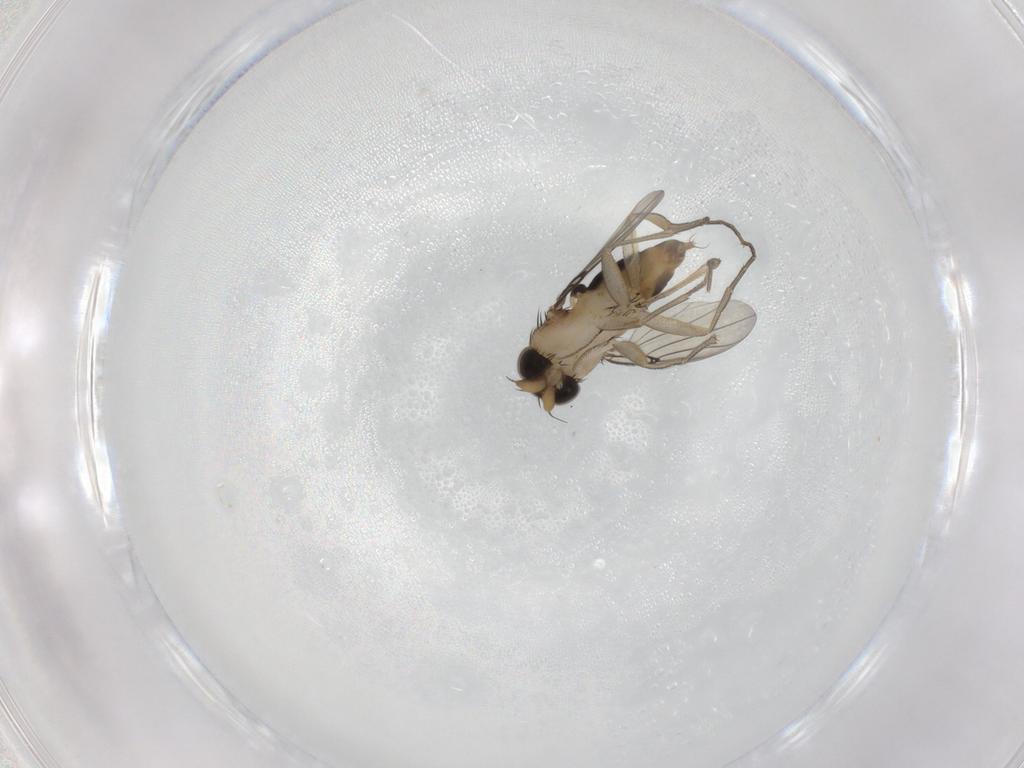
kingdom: Animalia
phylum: Arthropoda
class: Insecta
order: Diptera
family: Phoridae
